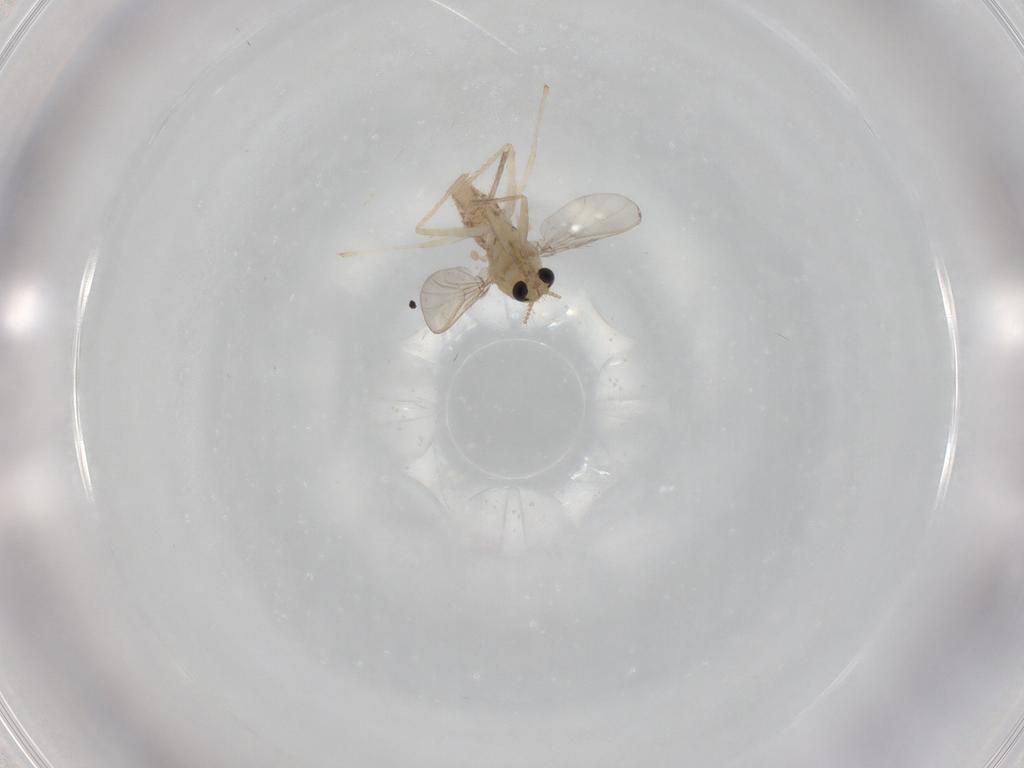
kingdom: Animalia
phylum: Arthropoda
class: Insecta
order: Diptera
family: Chironomidae
